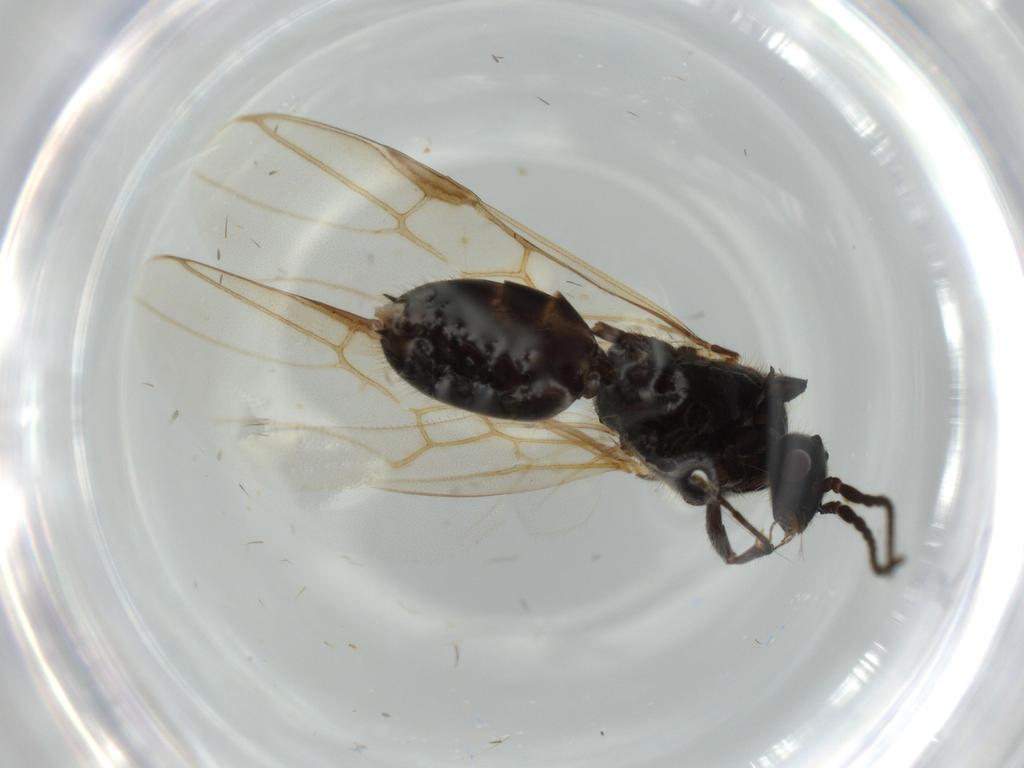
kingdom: Animalia
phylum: Arthropoda
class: Insecta
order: Hymenoptera
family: Formicidae
